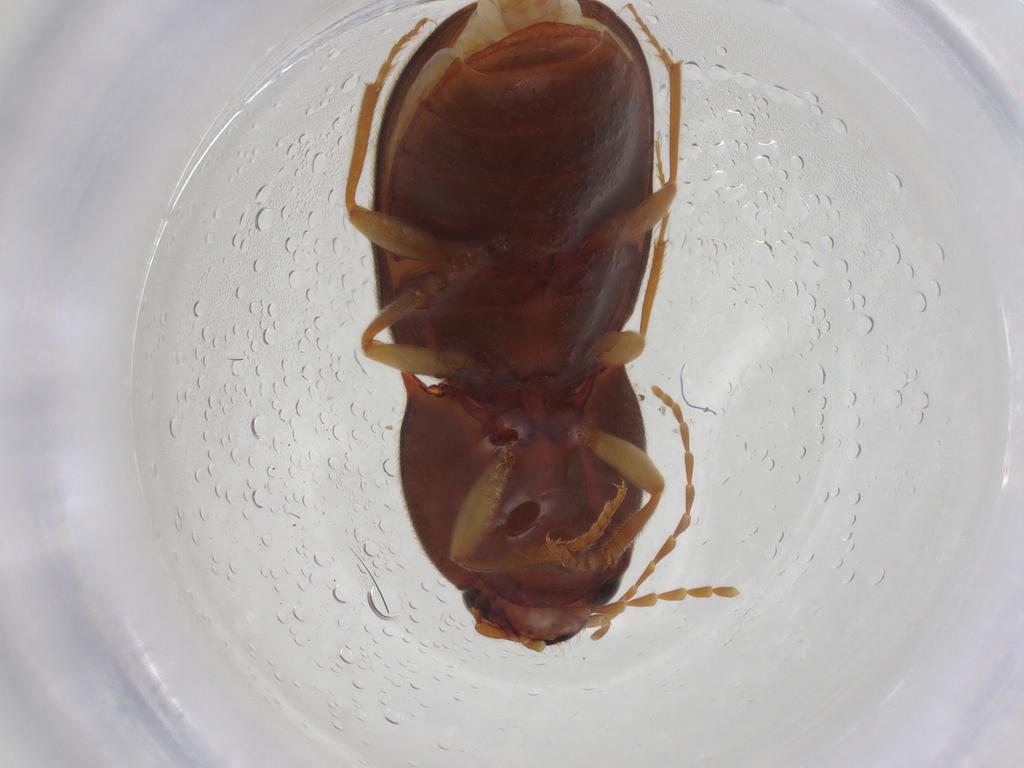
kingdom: Animalia
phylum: Arthropoda
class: Insecta
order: Coleoptera
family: Elateridae
